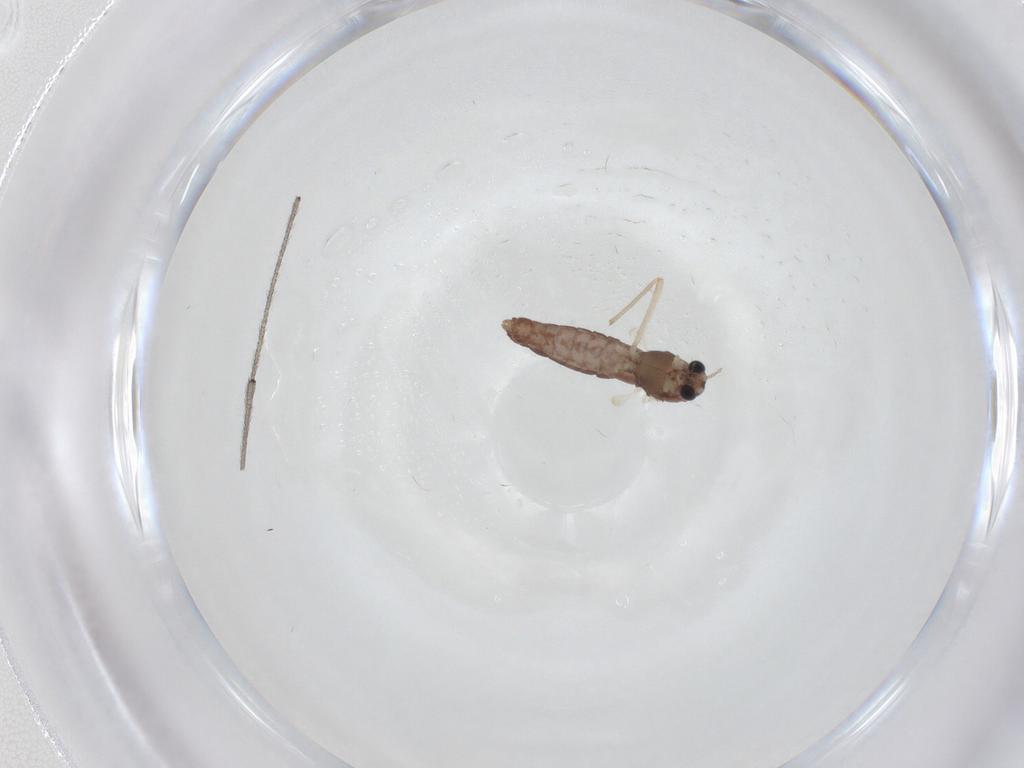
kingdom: Animalia
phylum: Arthropoda
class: Insecta
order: Diptera
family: Chironomidae
